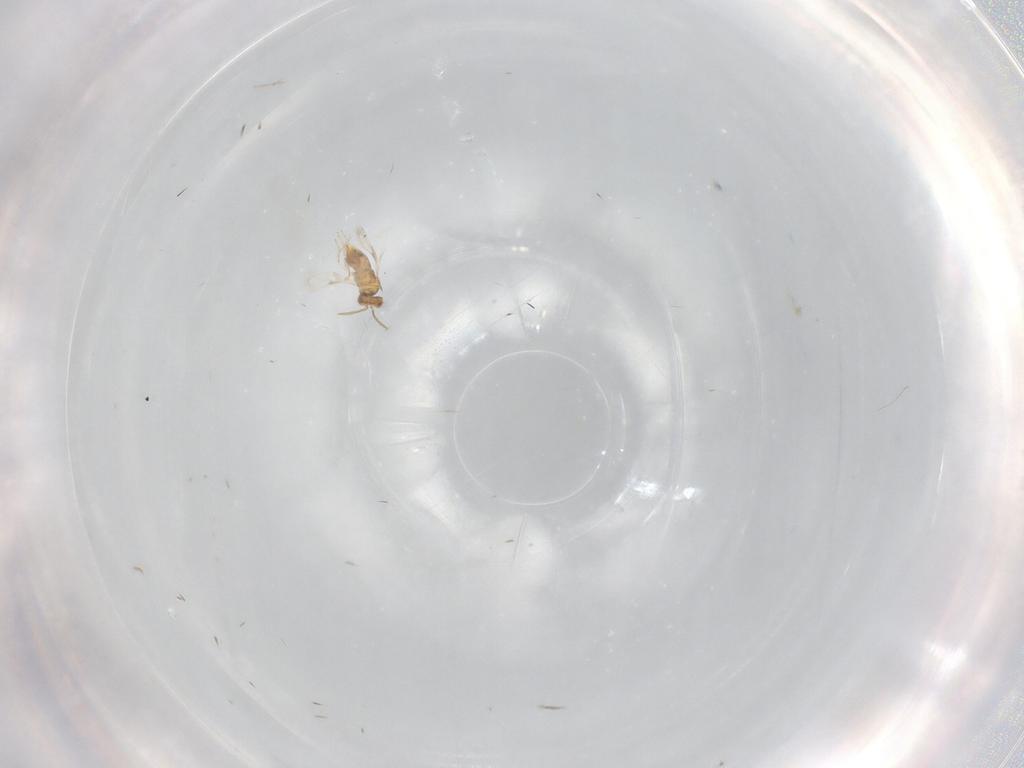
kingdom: Animalia
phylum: Arthropoda
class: Insecta
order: Hymenoptera
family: Aphelinidae
